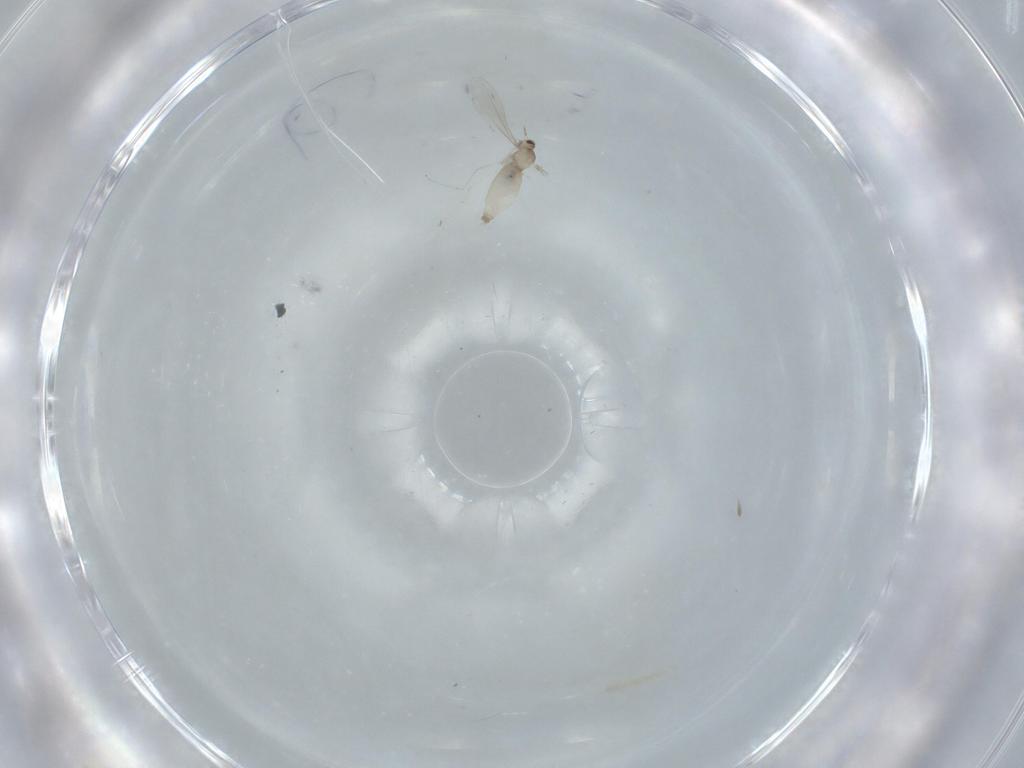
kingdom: Animalia
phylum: Arthropoda
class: Insecta
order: Diptera
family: Cecidomyiidae
